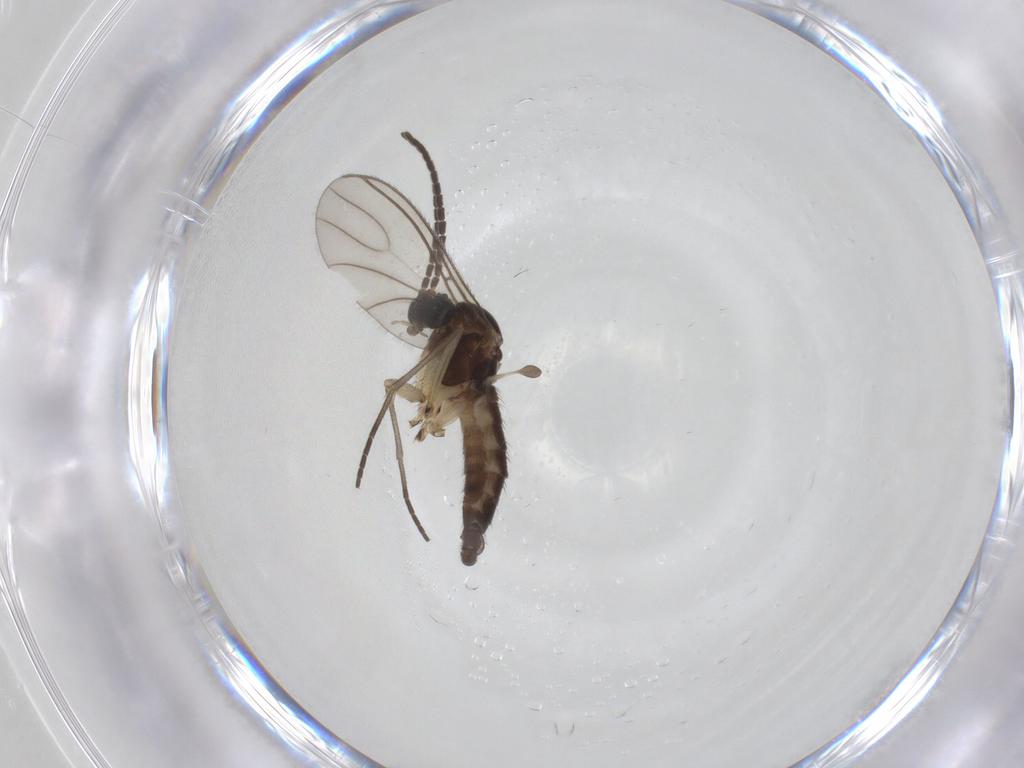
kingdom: Animalia
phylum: Arthropoda
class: Insecta
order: Diptera
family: Sciaridae
